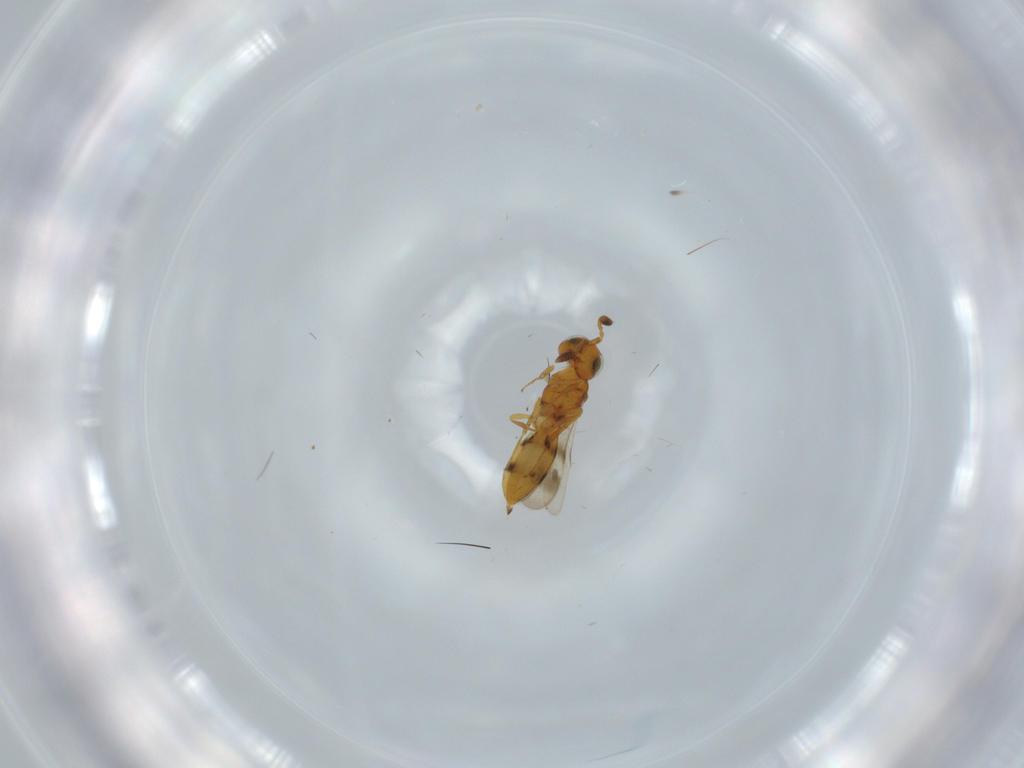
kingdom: Animalia
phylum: Arthropoda
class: Insecta
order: Hymenoptera
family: Scelionidae
